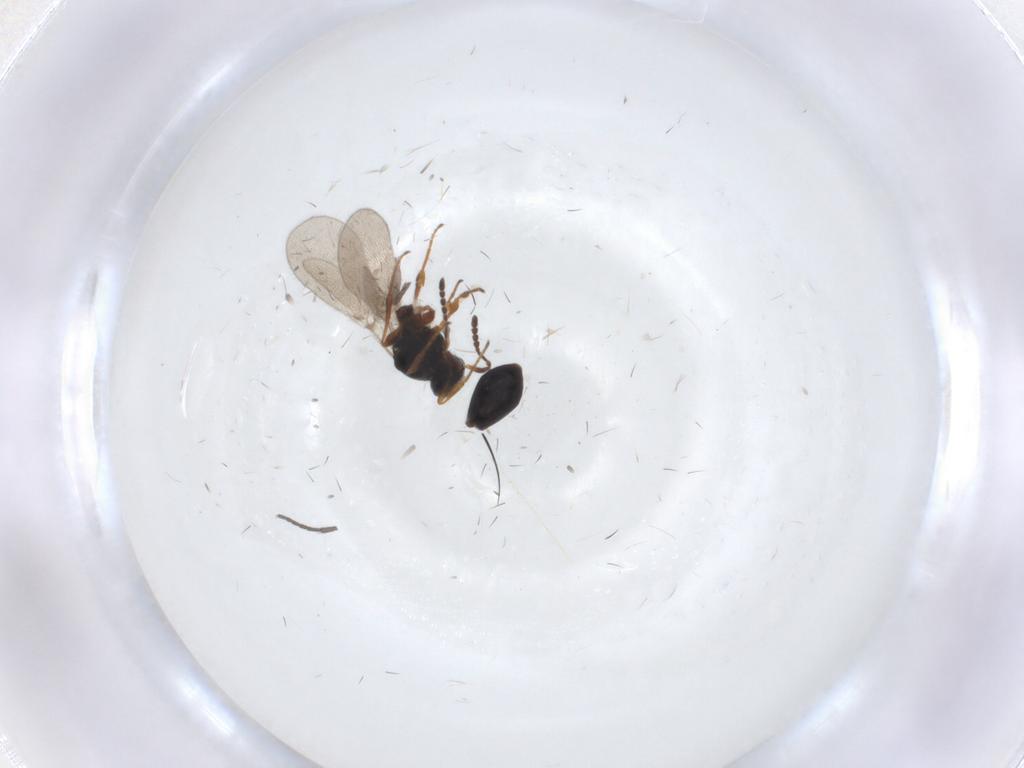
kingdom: Animalia
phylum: Arthropoda
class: Insecta
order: Hymenoptera
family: Platygastridae
